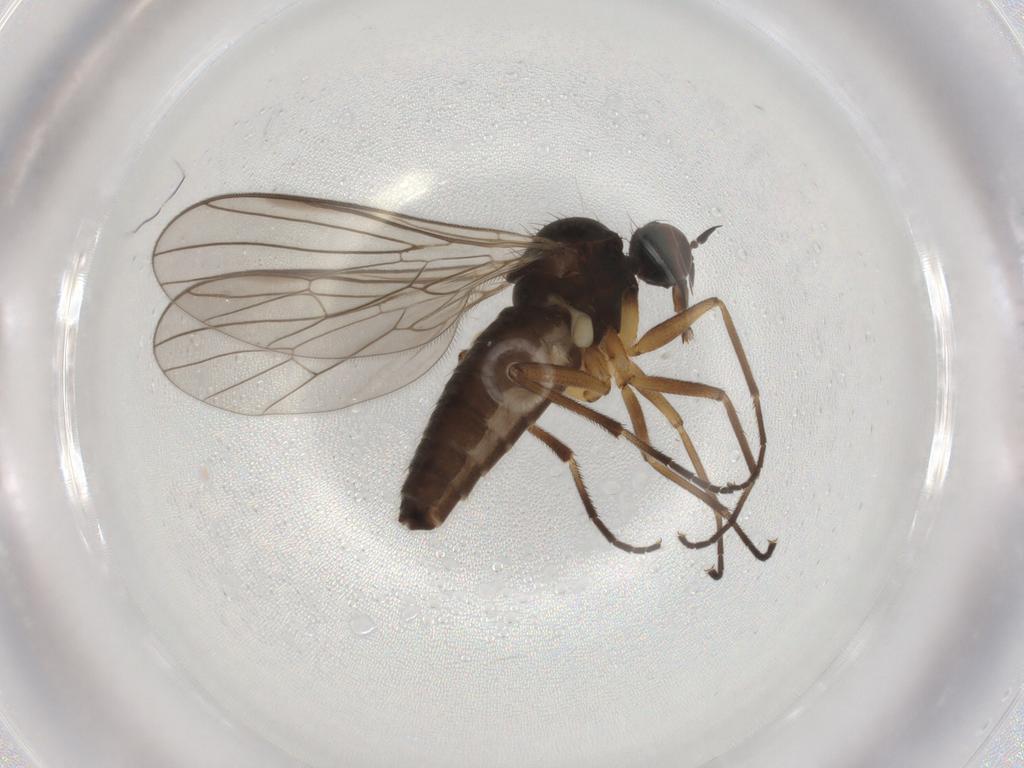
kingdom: Animalia
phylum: Arthropoda
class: Insecta
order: Diptera
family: Empididae
